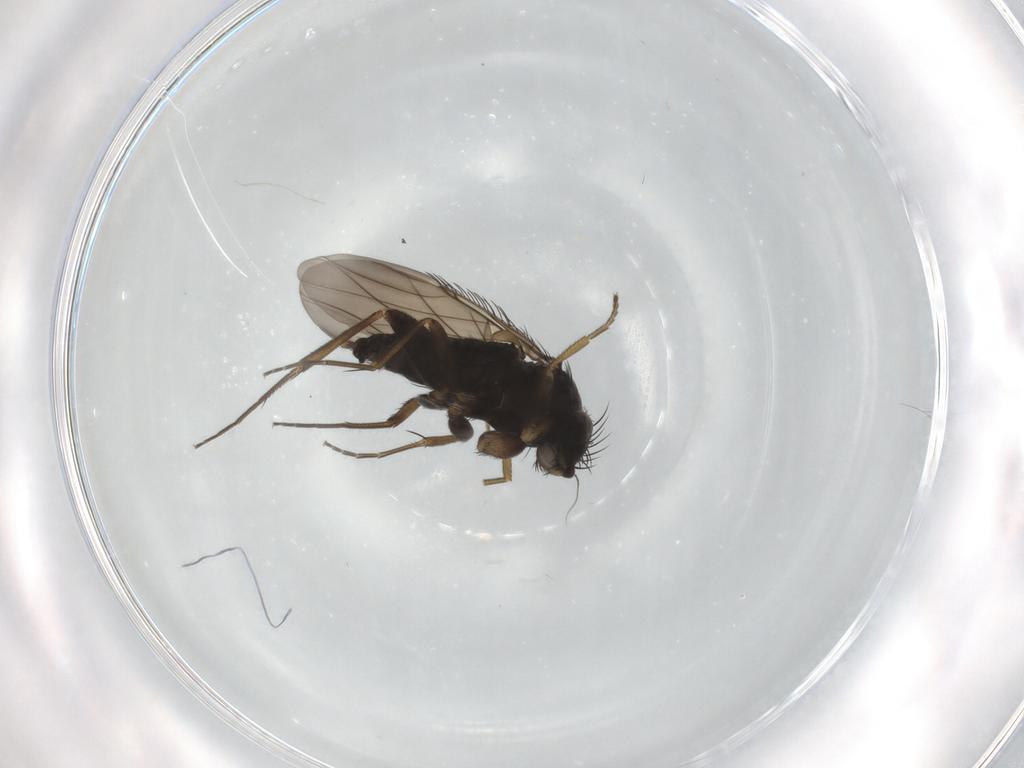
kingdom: Animalia
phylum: Arthropoda
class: Insecta
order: Diptera
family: Phoridae
